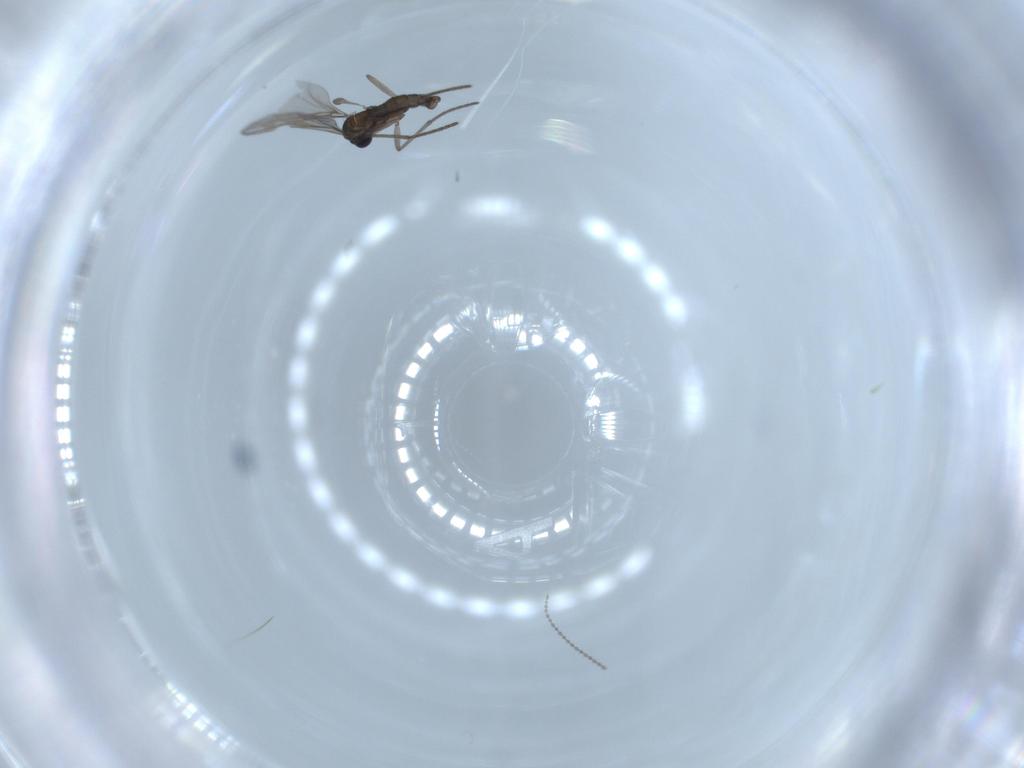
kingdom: Animalia
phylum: Arthropoda
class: Insecta
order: Diptera
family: Sciaridae
